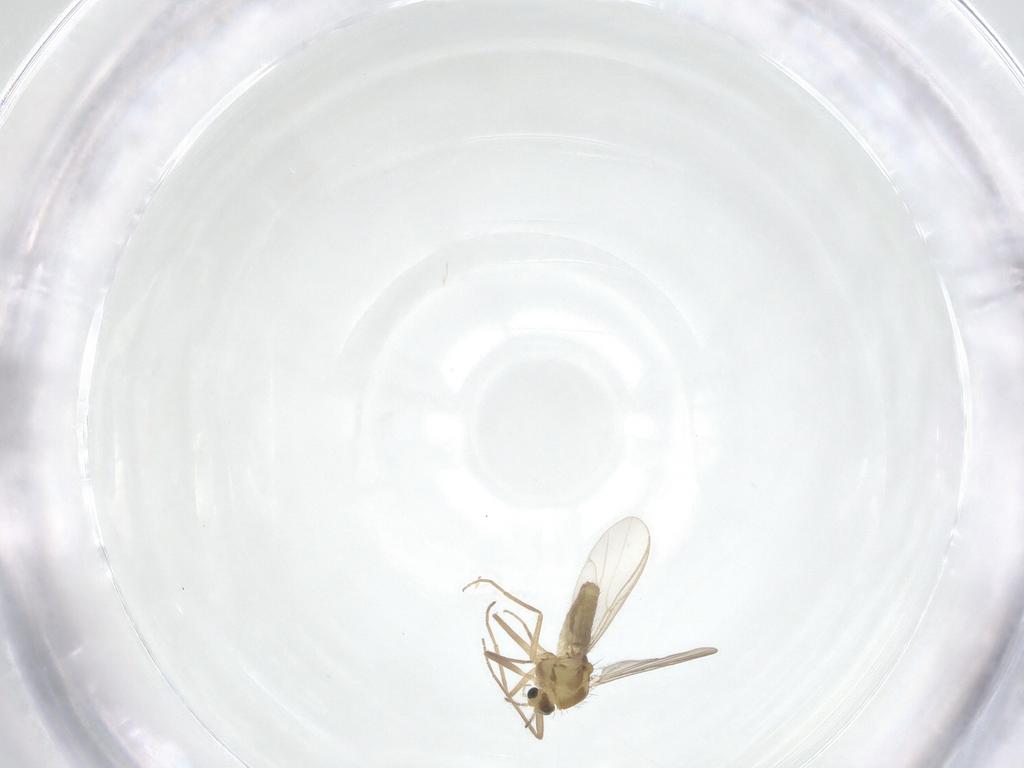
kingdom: Animalia
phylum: Arthropoda
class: Insecta
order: Diptera
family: Chironomidae
